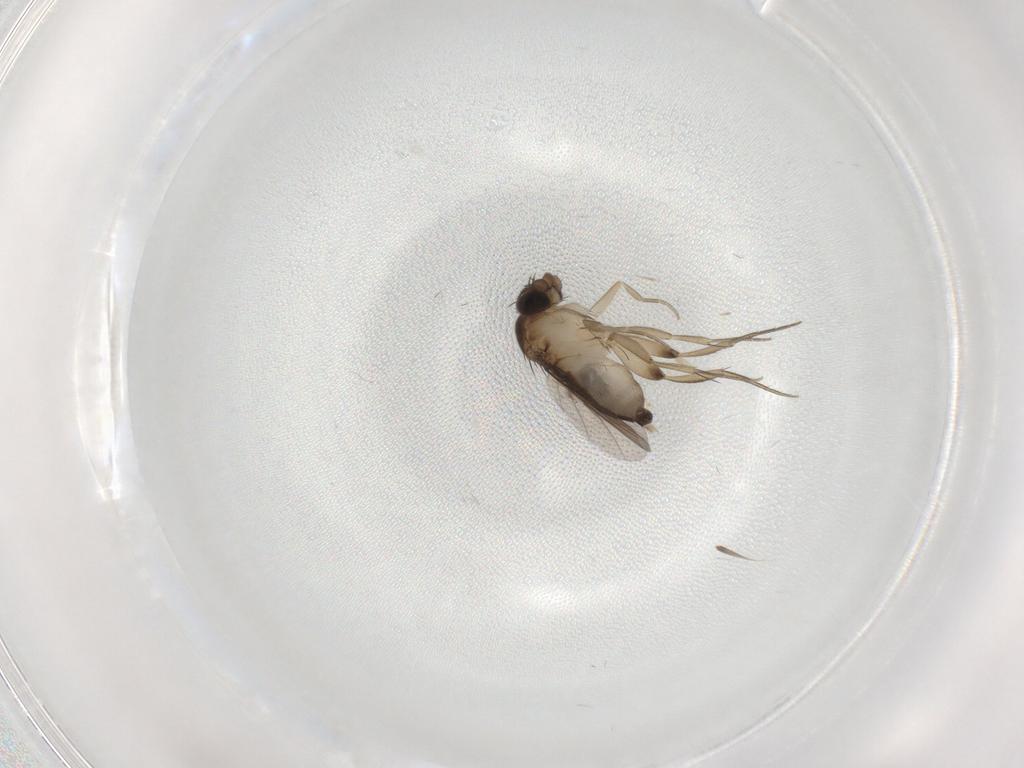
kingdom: Animalia
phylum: Arthropoda
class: Insecta
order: Diptera
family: Phoridae
